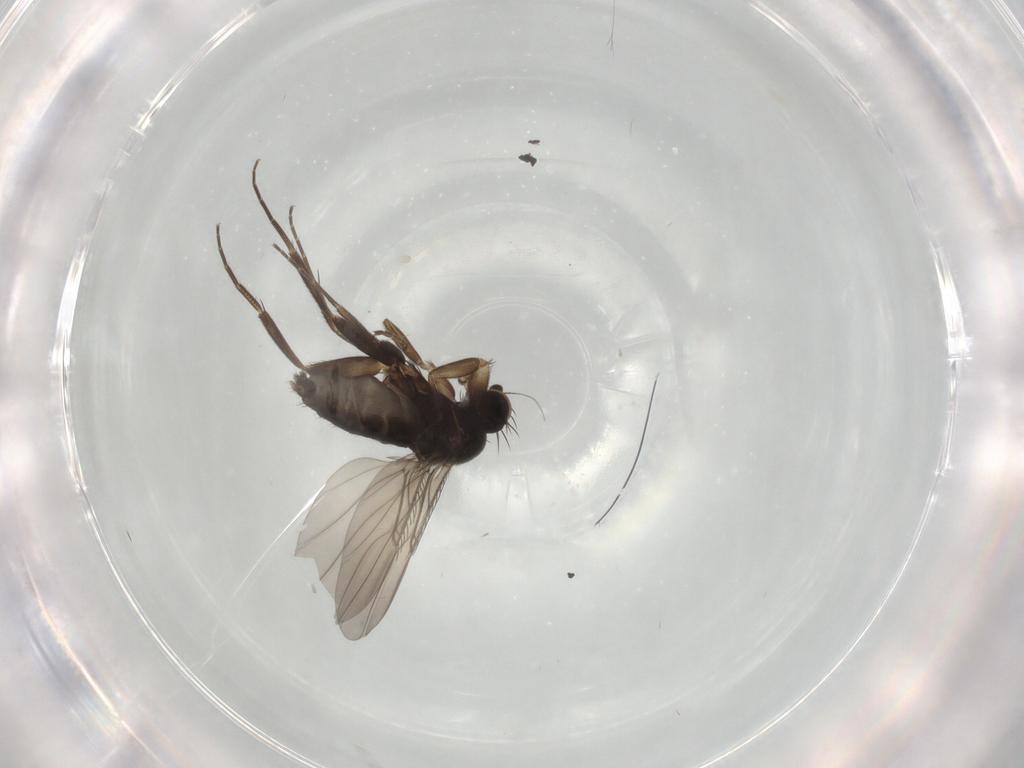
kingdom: Animalia
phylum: Arthropoda
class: Insecta
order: Diptera
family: Phoridae
